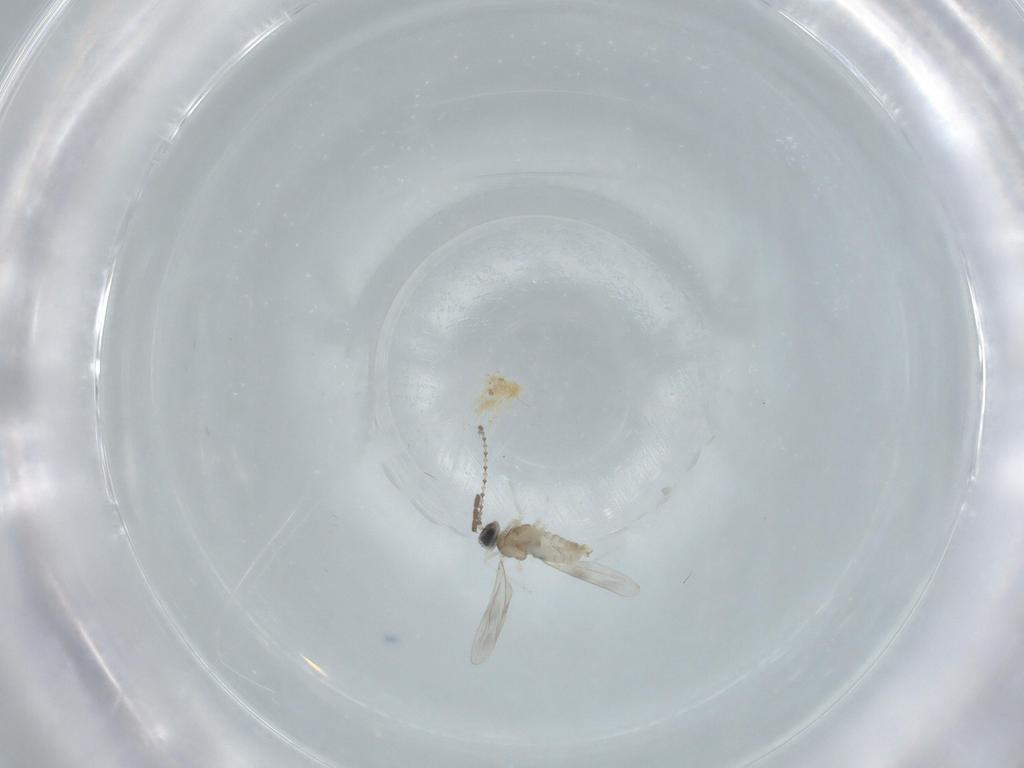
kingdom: Animalia
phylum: Arthropoda
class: Insecta
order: Diptera
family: Cecidomyiidae
